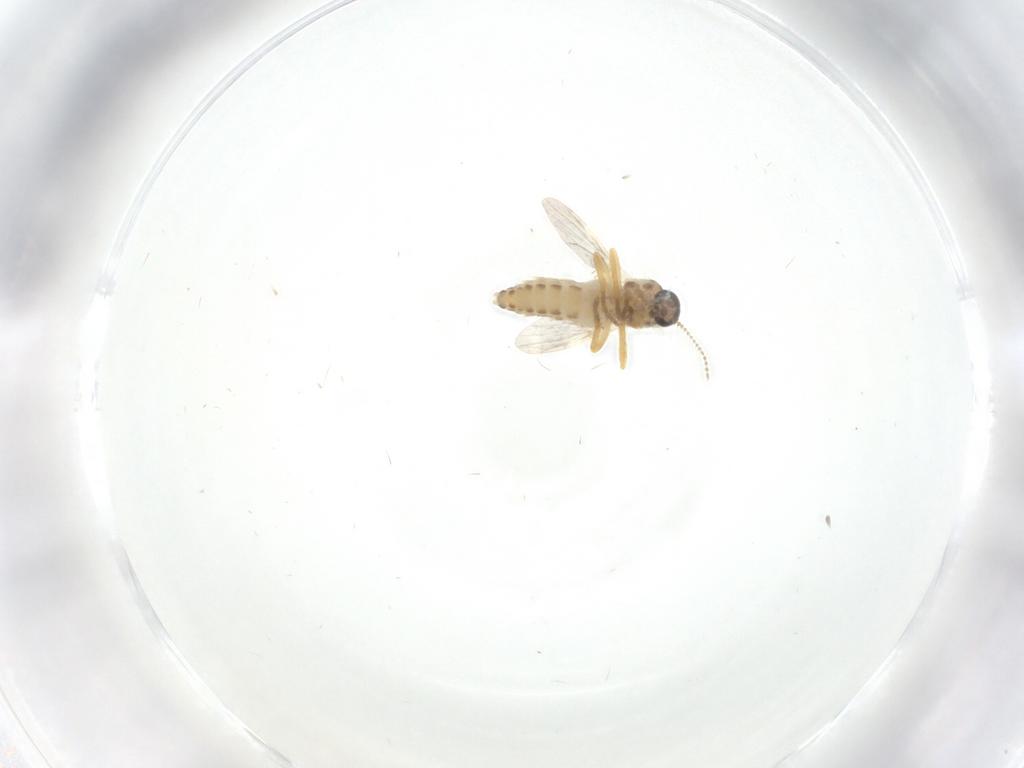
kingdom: Animalia
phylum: Arthropoda
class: Insecta
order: Diptera
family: Ceratopogonidae
